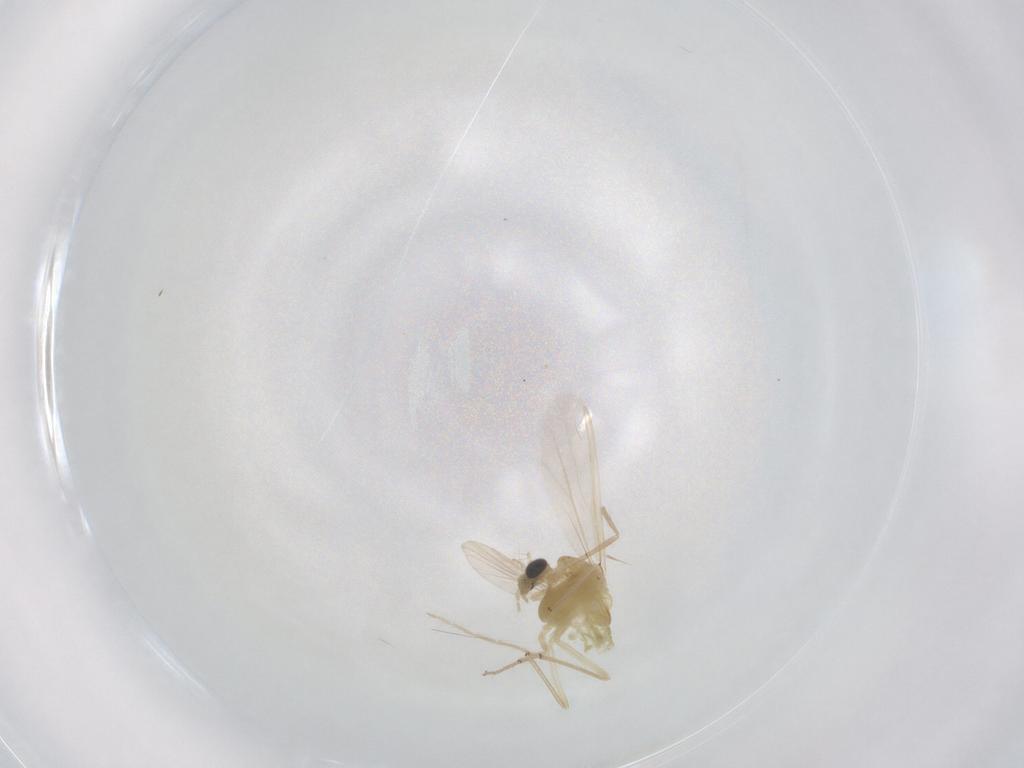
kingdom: Animalia
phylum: Arthropoda
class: Insecta
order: Diptera
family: Chironomidae
